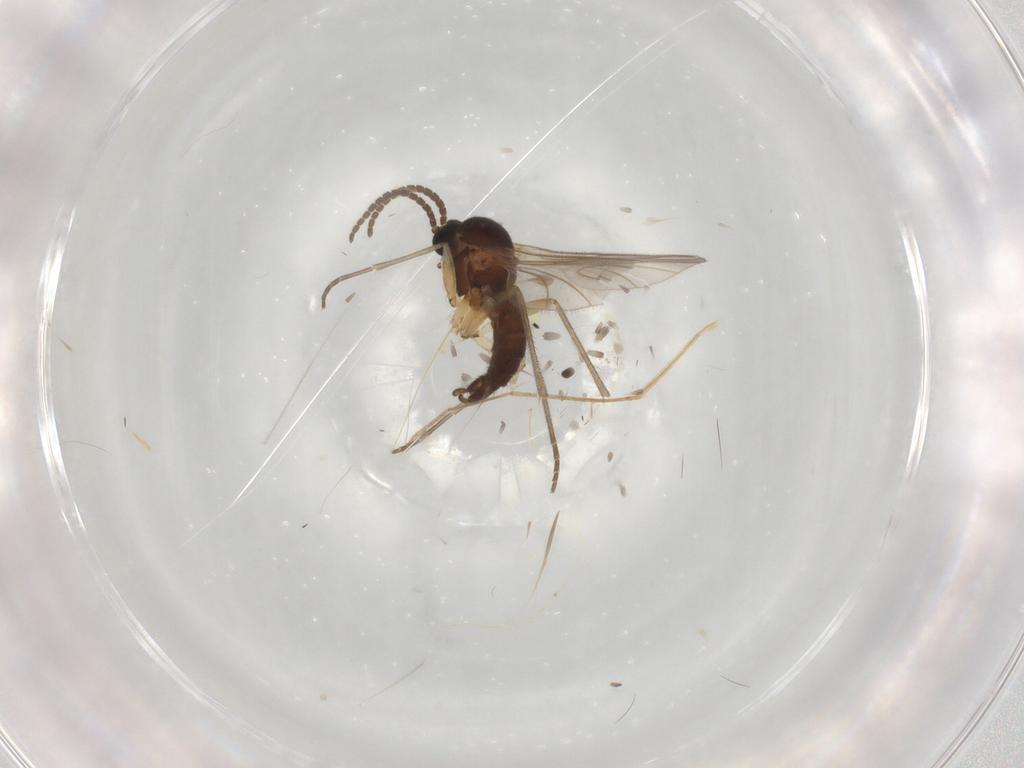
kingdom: Animalia
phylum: Arthropoda
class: Insecta
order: Diptera
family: Cecidomyiidae
